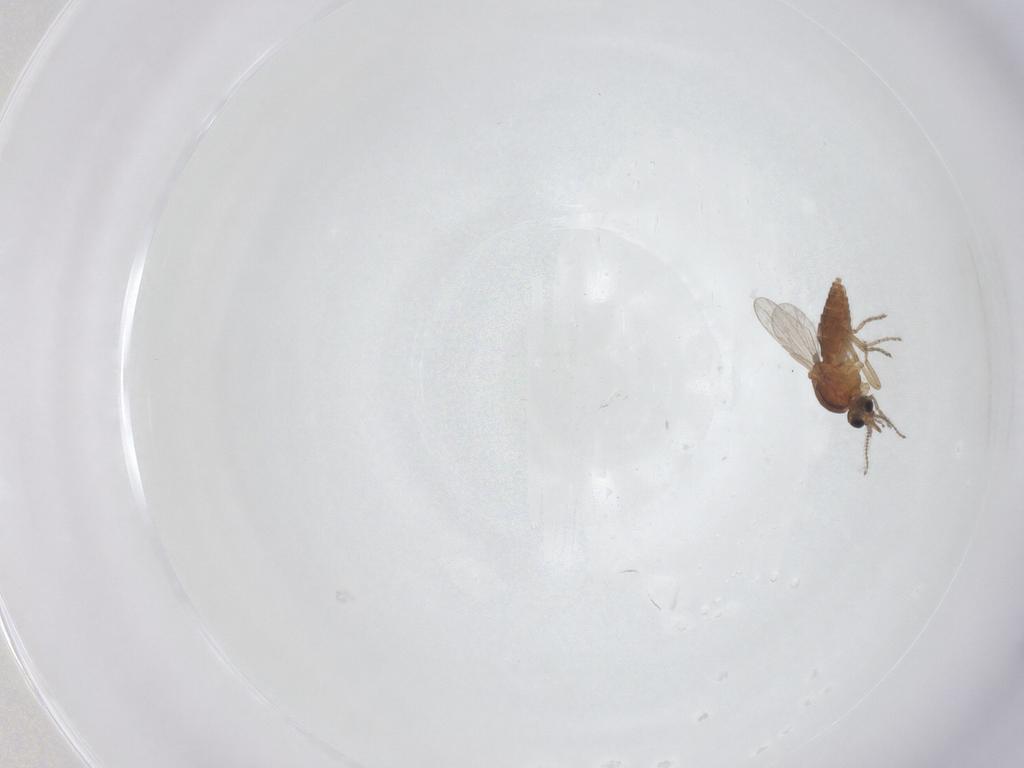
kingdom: Animalia
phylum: Arthropoda
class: Insecta
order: Diptera
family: Ceratopogonidae
